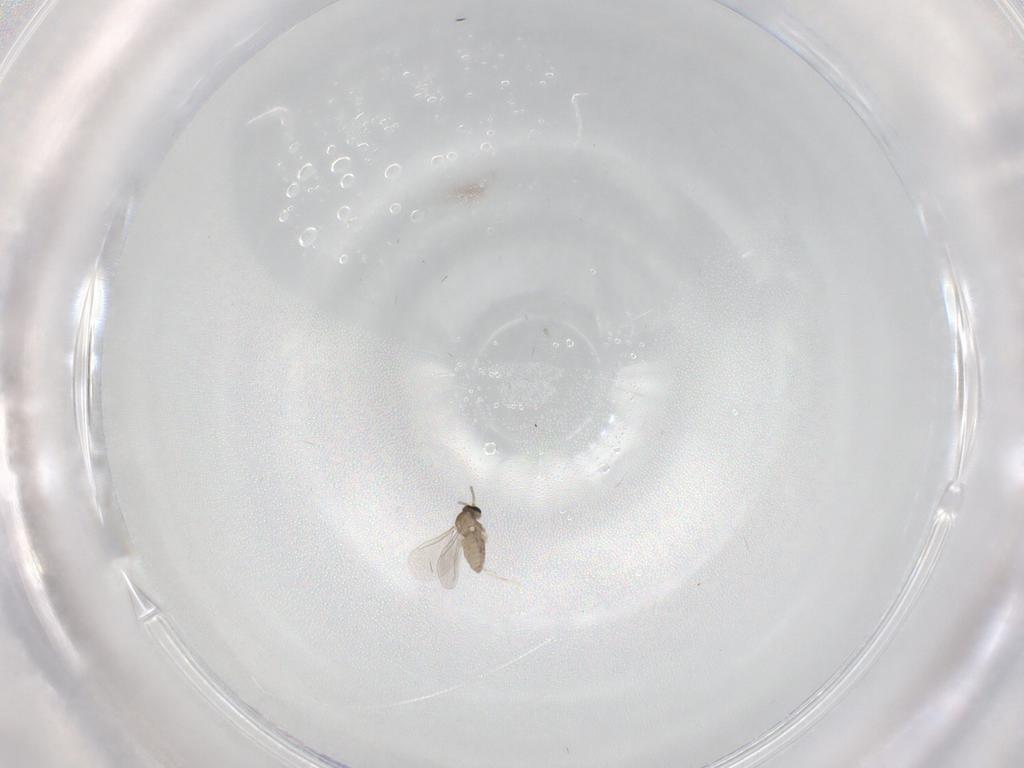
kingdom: Animalia
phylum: Arthropoda
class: Insecta
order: Diptera
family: Cecidomyiidae
